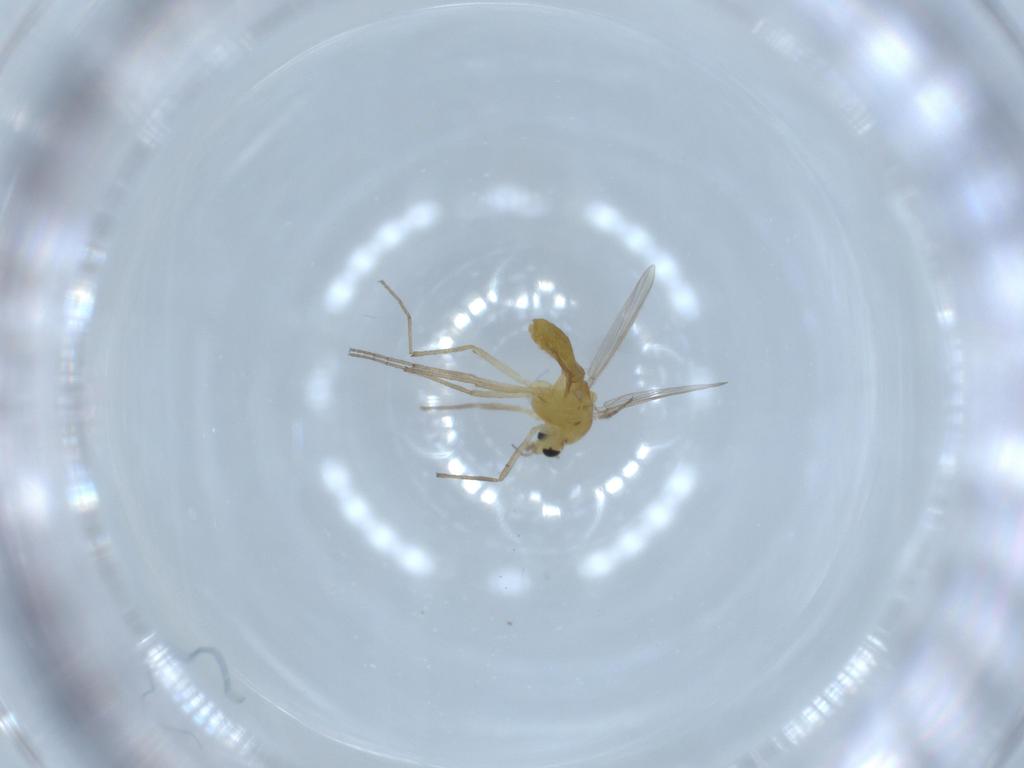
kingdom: Animalia
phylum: Arthropoda
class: Insecta
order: Diptera
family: Chironomidae
